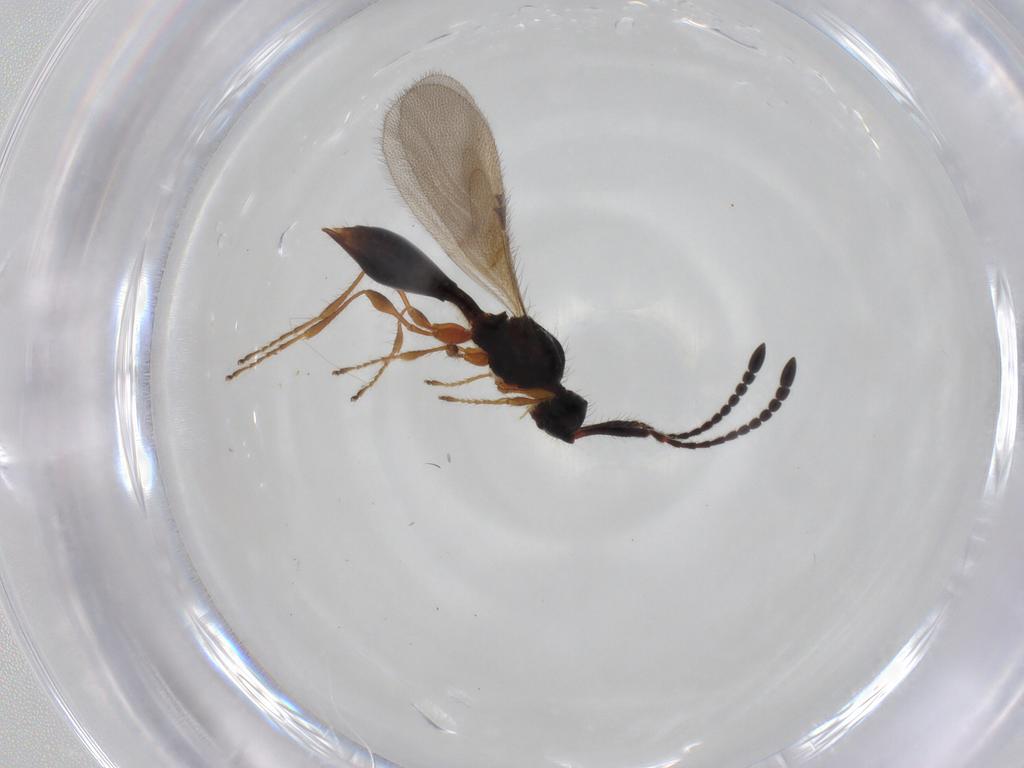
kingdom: Animalia
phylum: Arthropoda
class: Insecta
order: Hymenoptera
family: Diapriidae
